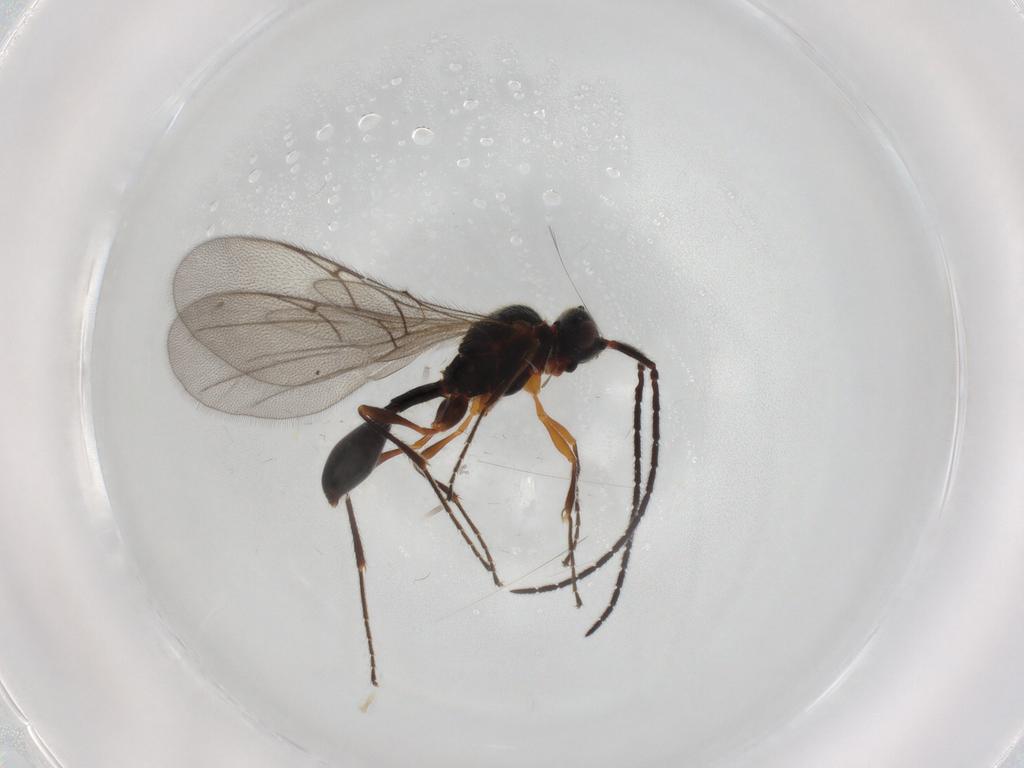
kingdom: Animalia
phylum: Arthropoda
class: Insecta
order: Hymenoptera
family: Diapriidae
